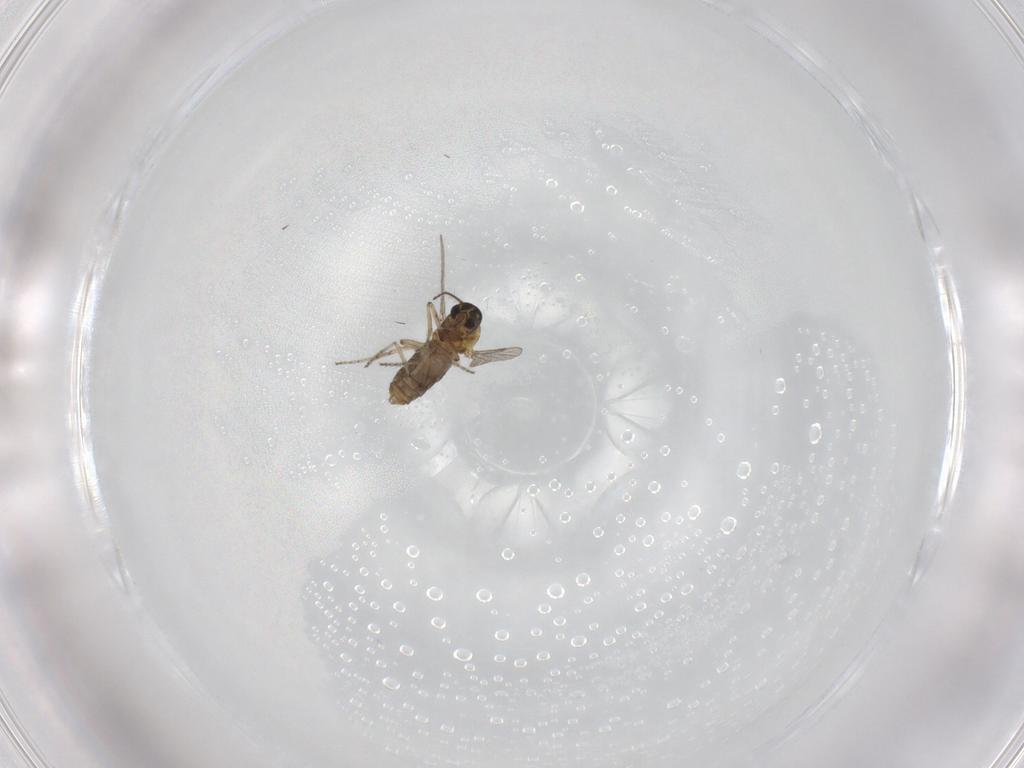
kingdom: Animalia
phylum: Arthropoda
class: Insecta
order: Diptera
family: Ceratopogonidae
